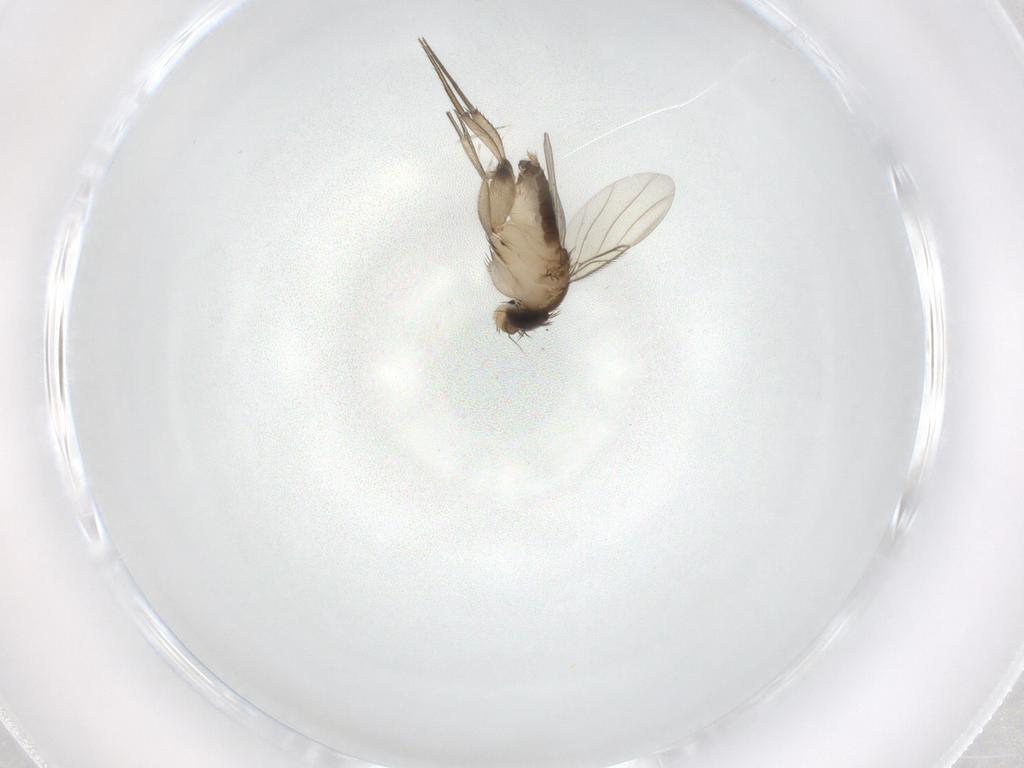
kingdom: Animalia
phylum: Arthropoda
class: Insecta
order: Diptera
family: Phoridae
